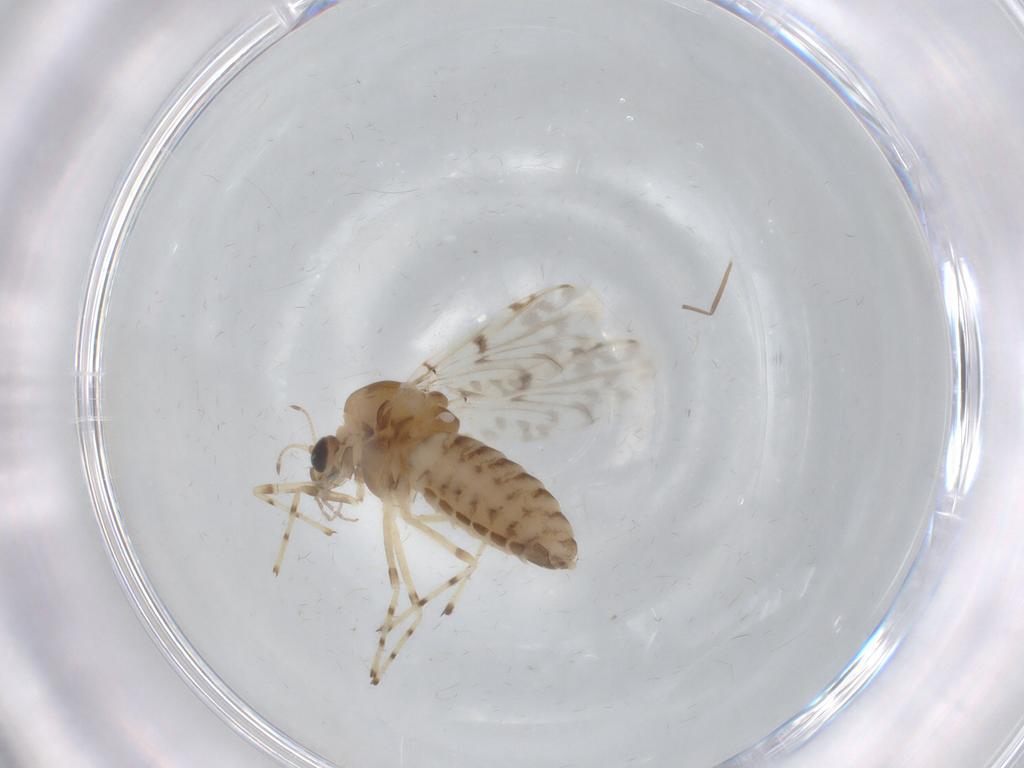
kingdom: Animalia
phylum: Arthropoda
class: Insecta
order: Diptera
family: Chironomidae
